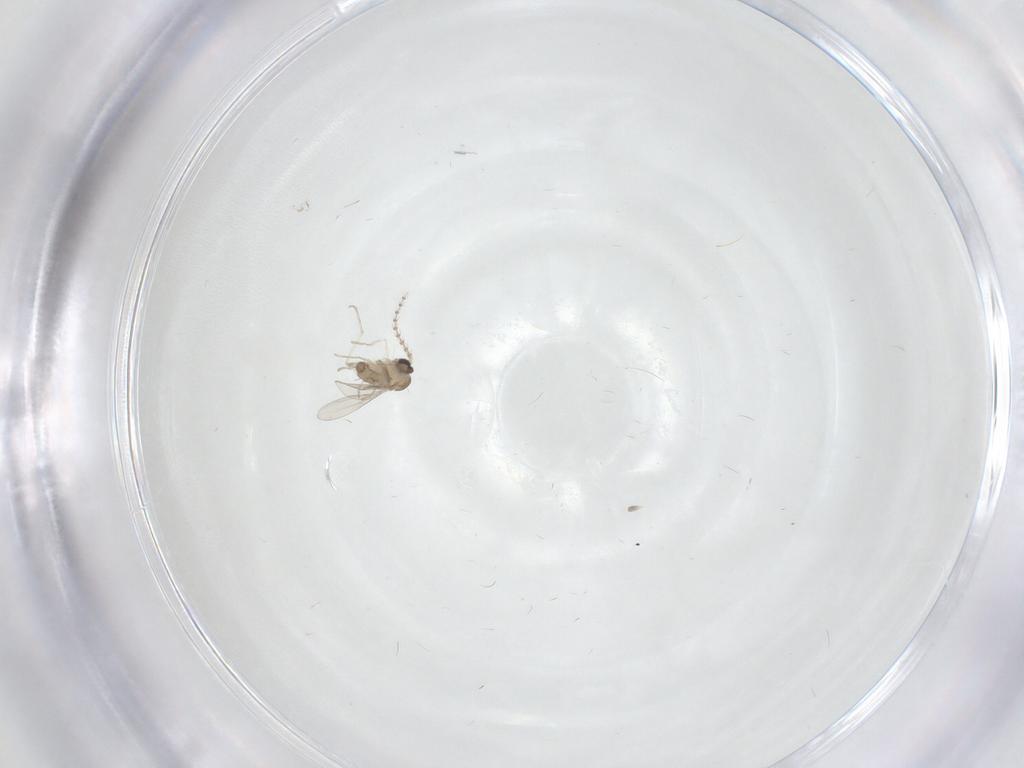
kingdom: Animalia
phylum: Arthropoda
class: Insecta
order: Diptera
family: Cecidomyiidae
